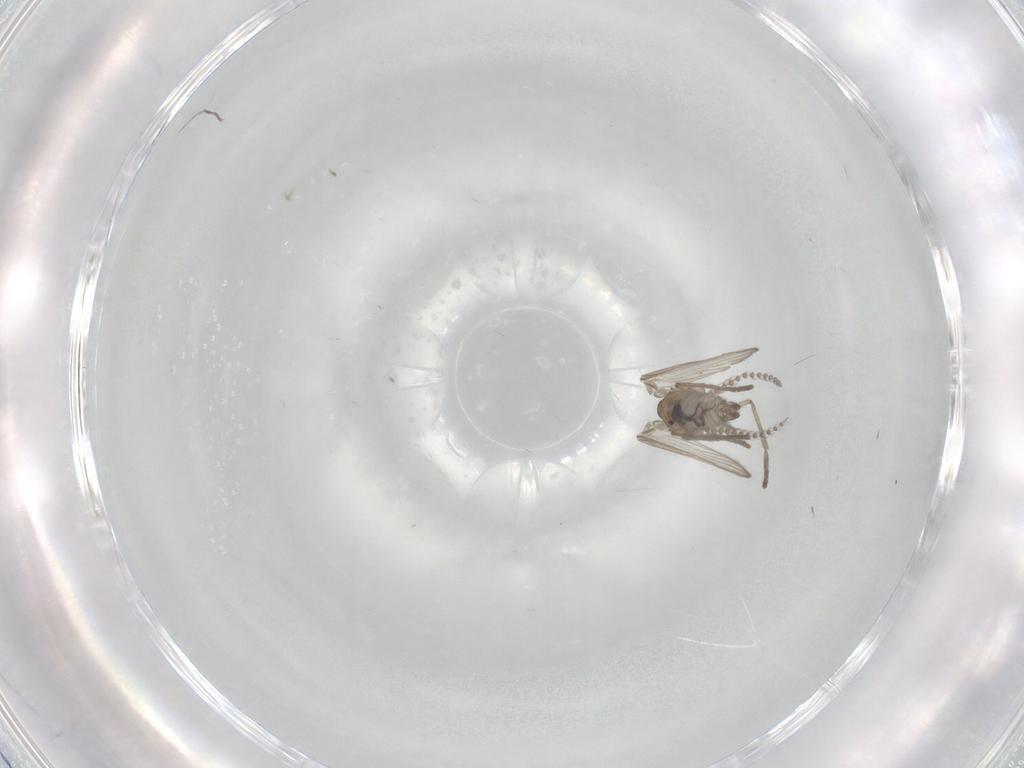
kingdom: Animalia
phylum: Arthropoda
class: Insecta
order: Diptera
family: Psychodidae
